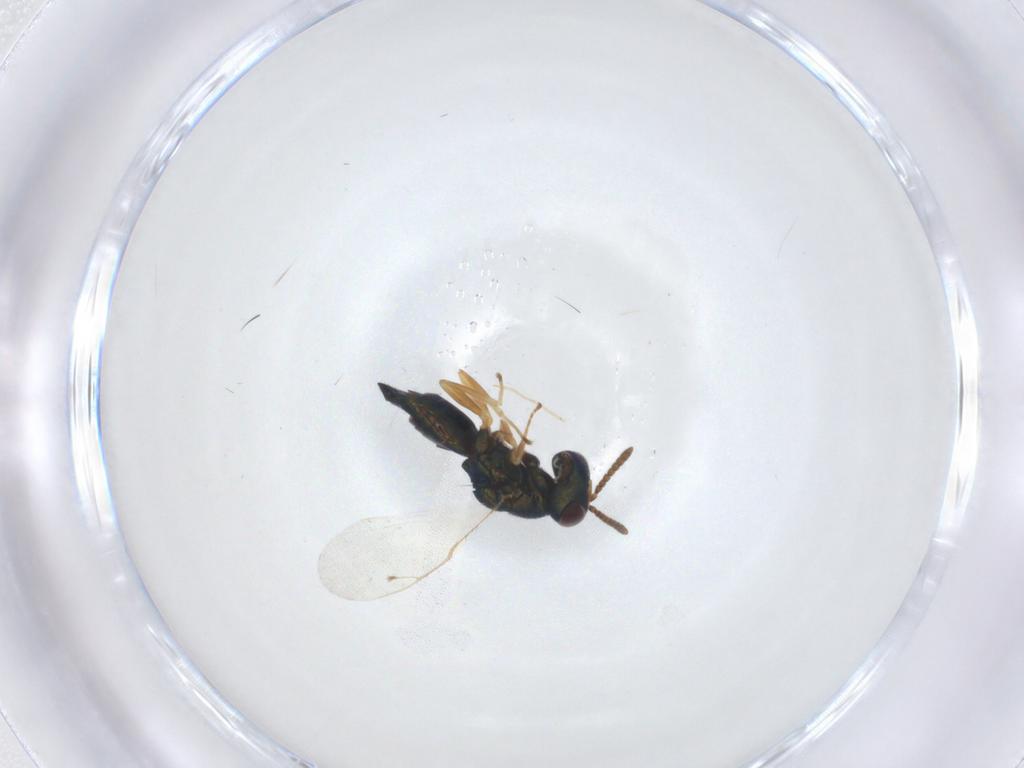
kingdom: Animalia
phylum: Arthropoda
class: Insecta
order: Hymenoptera
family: Pteromalidae
